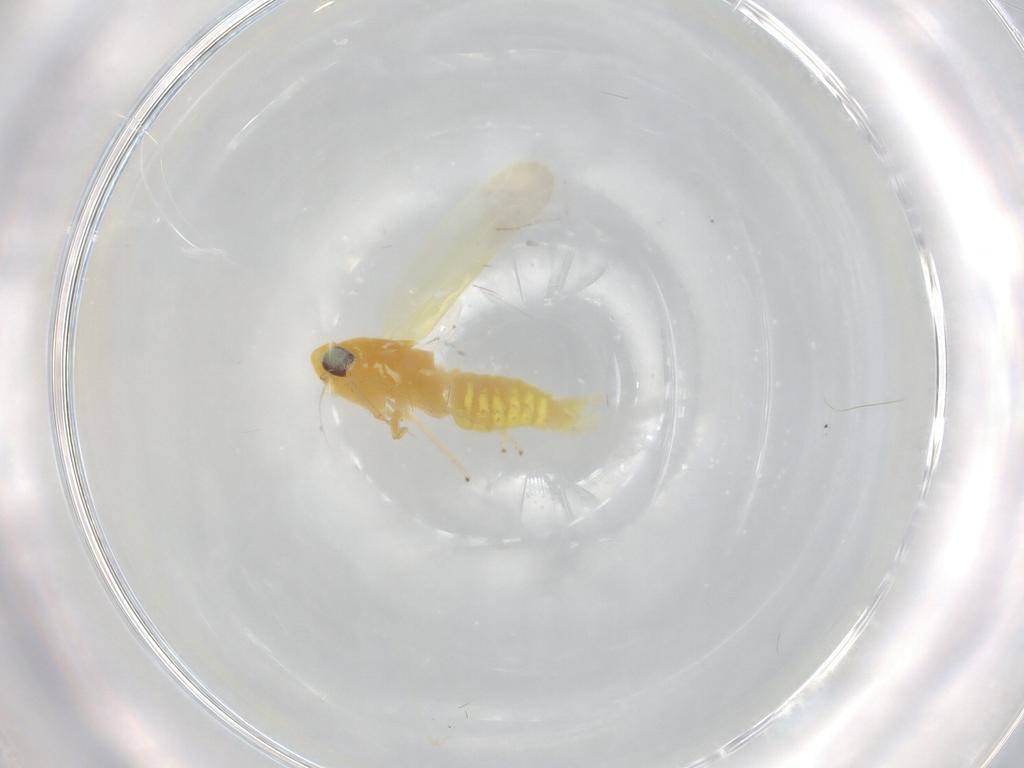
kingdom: Animalia
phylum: Arthropoda
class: Insecta
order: Hemiptera
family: Cicadellidae
